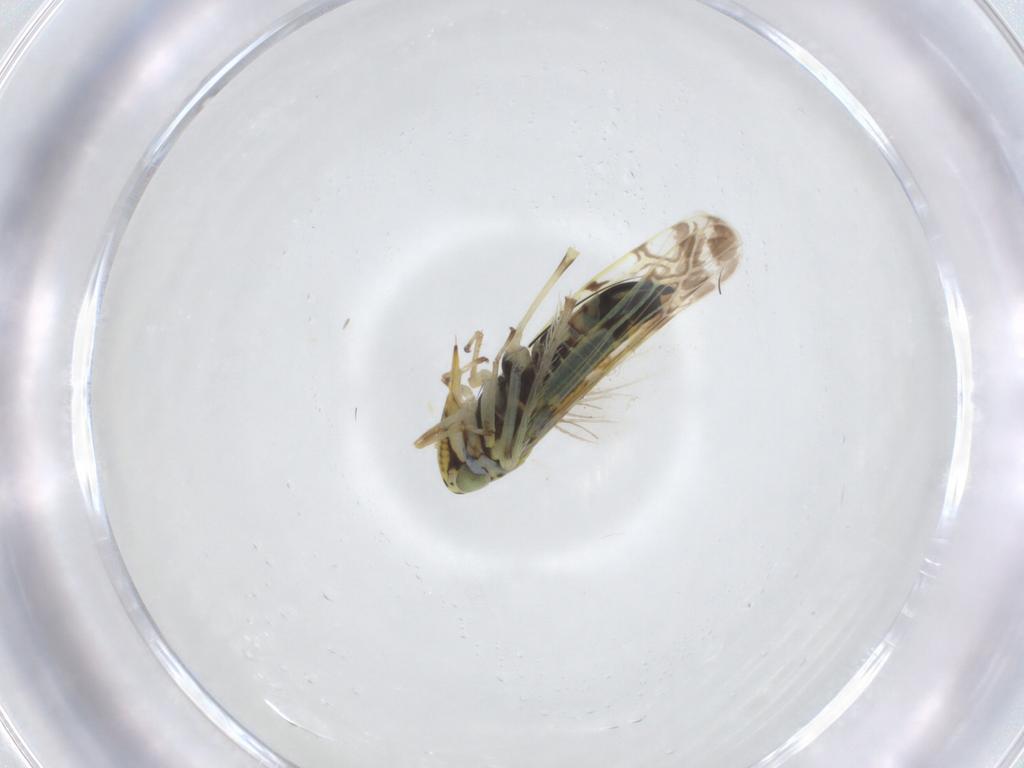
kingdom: Animalia
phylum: Arthropoda
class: Insecta
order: Hemiptera
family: Cicadellidae
